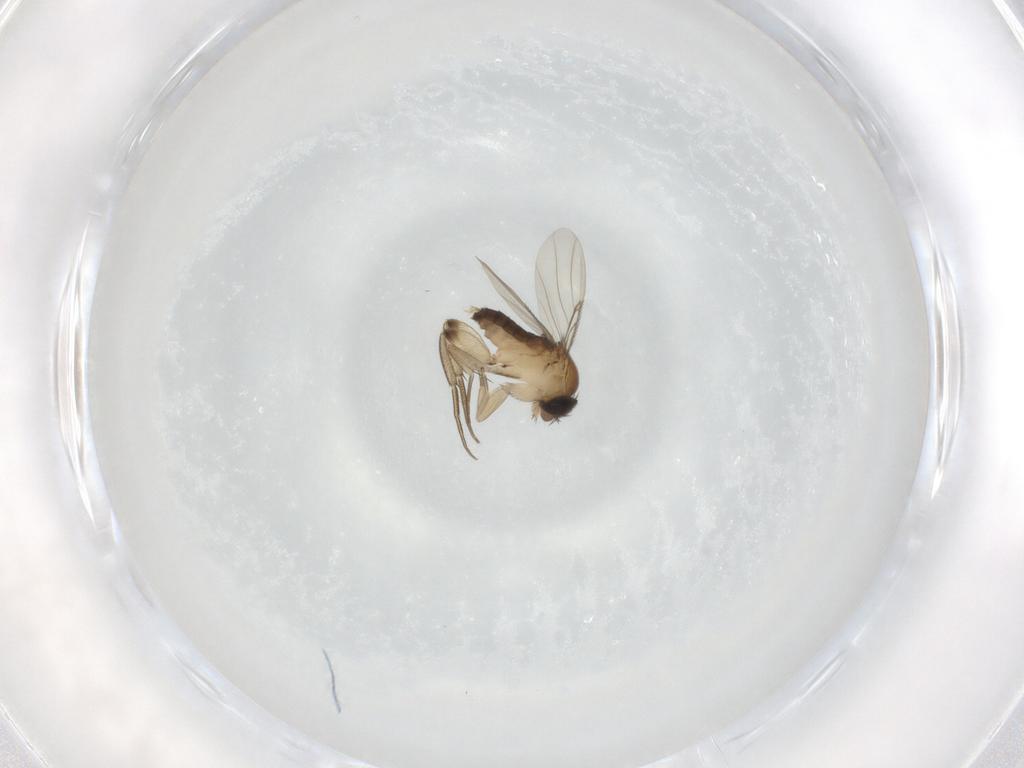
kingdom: Animalia
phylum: Arthropoda
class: Insecta
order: Diptera
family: Phoridae
